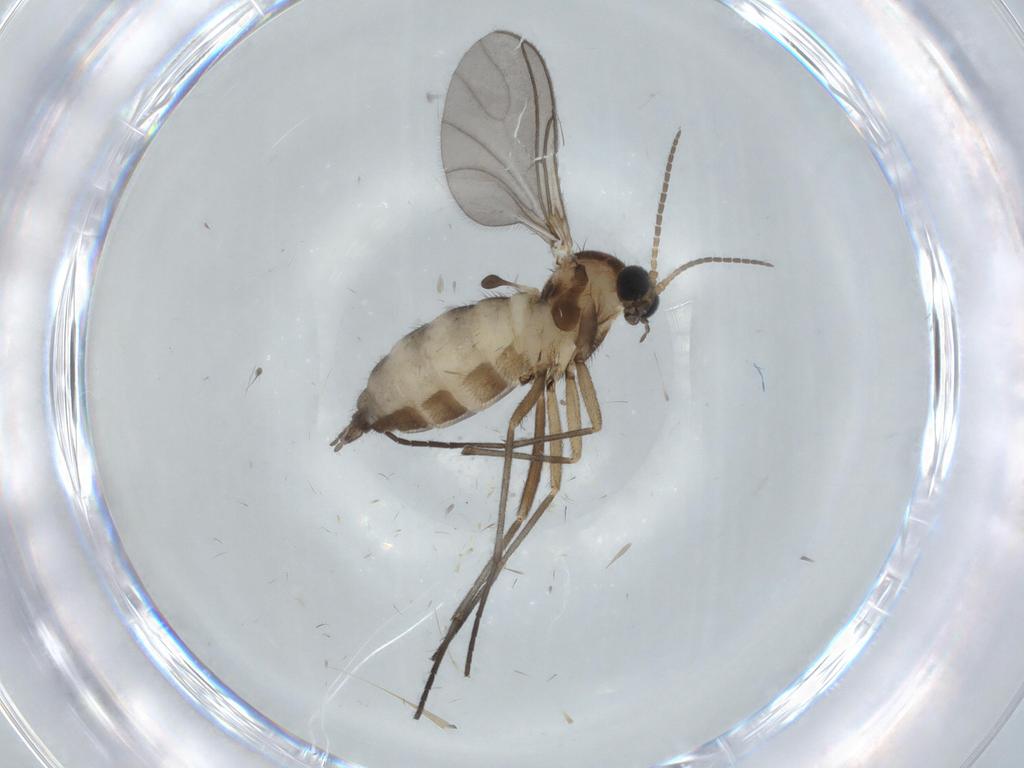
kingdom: Animalia
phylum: Arthropoda
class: Insecta
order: Diptera
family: Sciaridae
